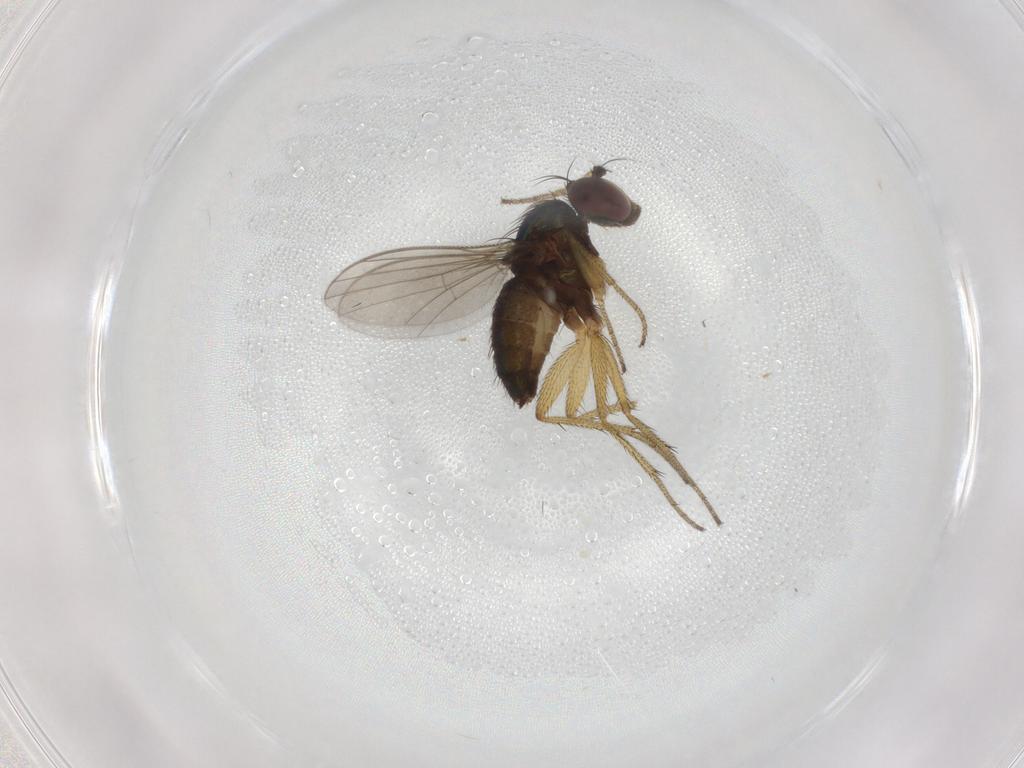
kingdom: Animalia
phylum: Arthropoda
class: Insecta
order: Diptera
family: Dolichopodidae
